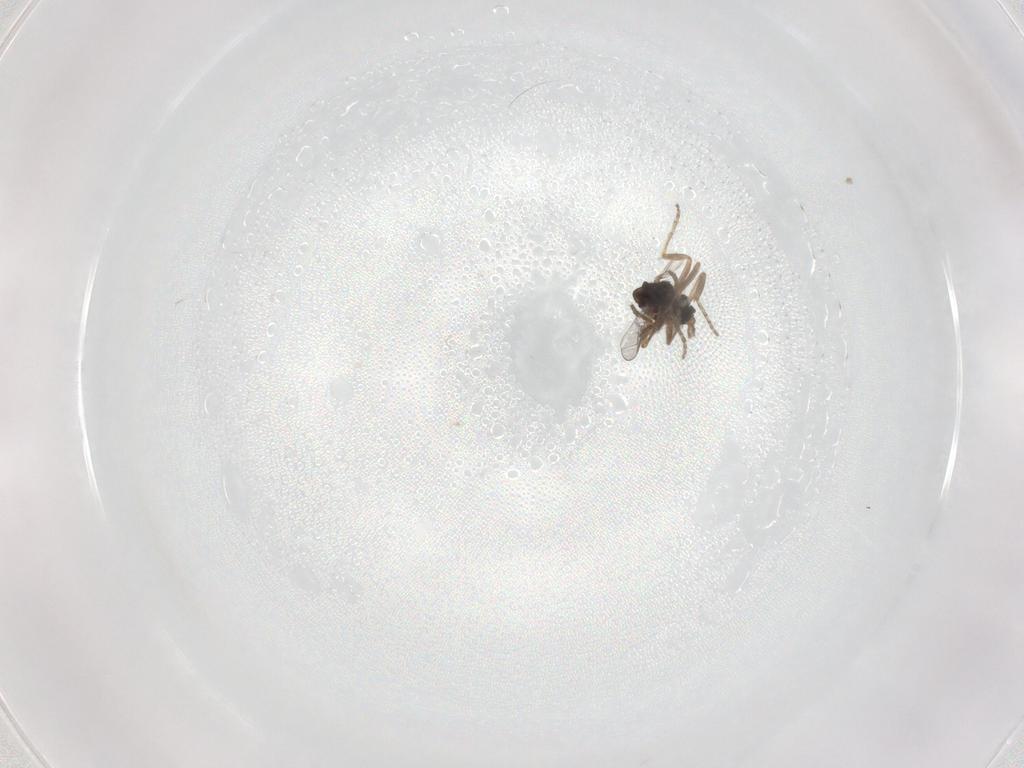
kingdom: Animalia
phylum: Arthropoda
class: Insecta
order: Diptera
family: Ceratopogonidae
